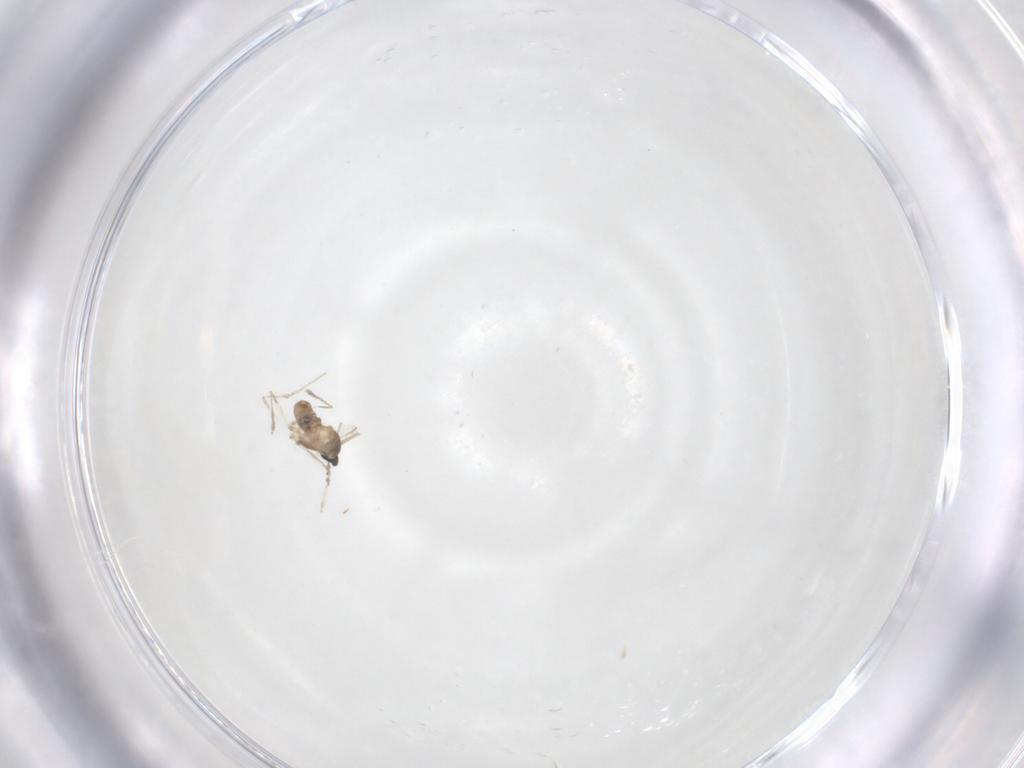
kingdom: Animalia
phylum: Arthropoda
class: Insecta
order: Diptera
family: Cecidomyiidae
